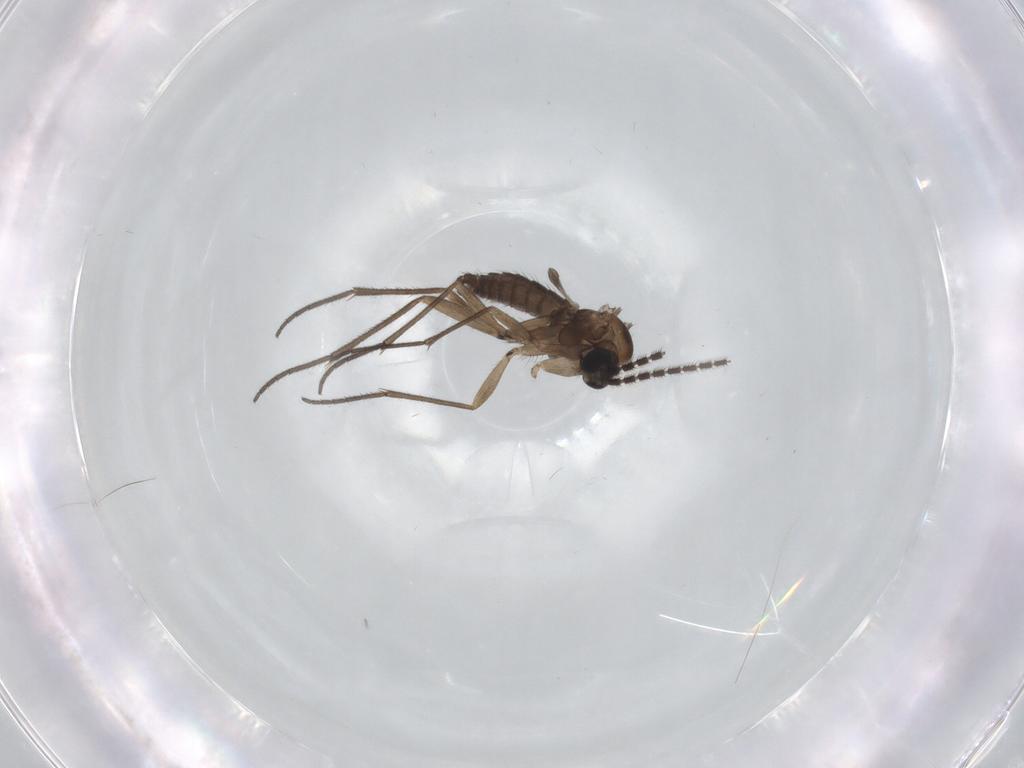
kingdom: Animalia
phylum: Arthropoda
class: Insecta
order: Diptera
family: Sciaridae
